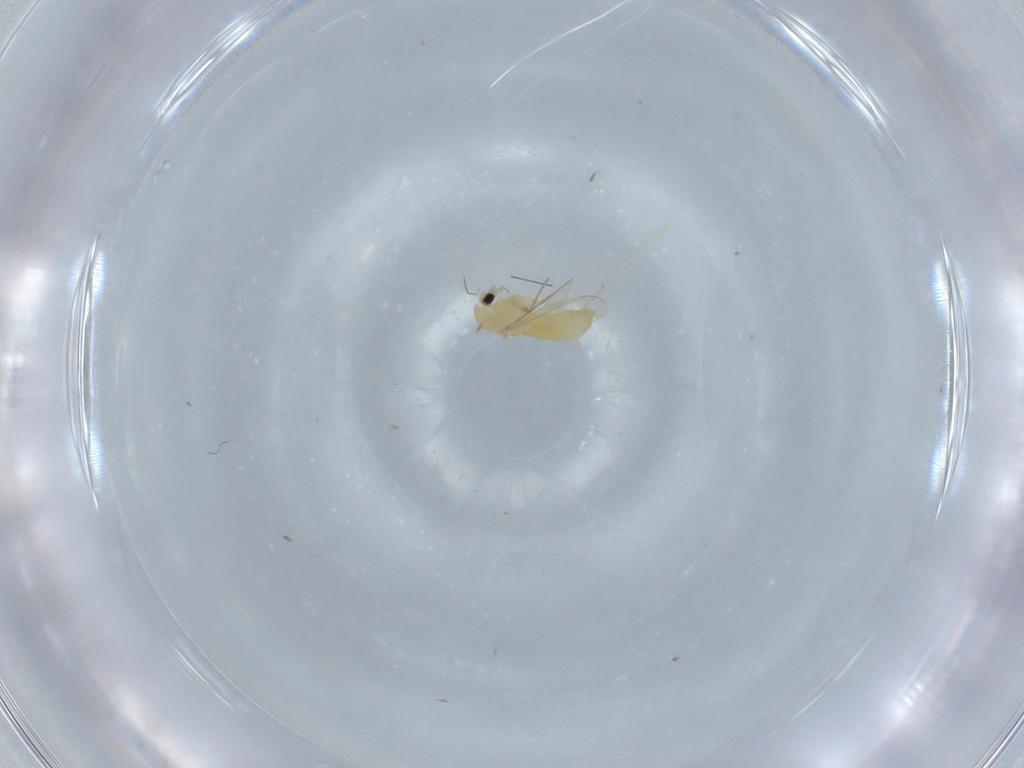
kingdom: Animalia
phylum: Arthropoda
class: Insecta
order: Diptera
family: Chironomidae
